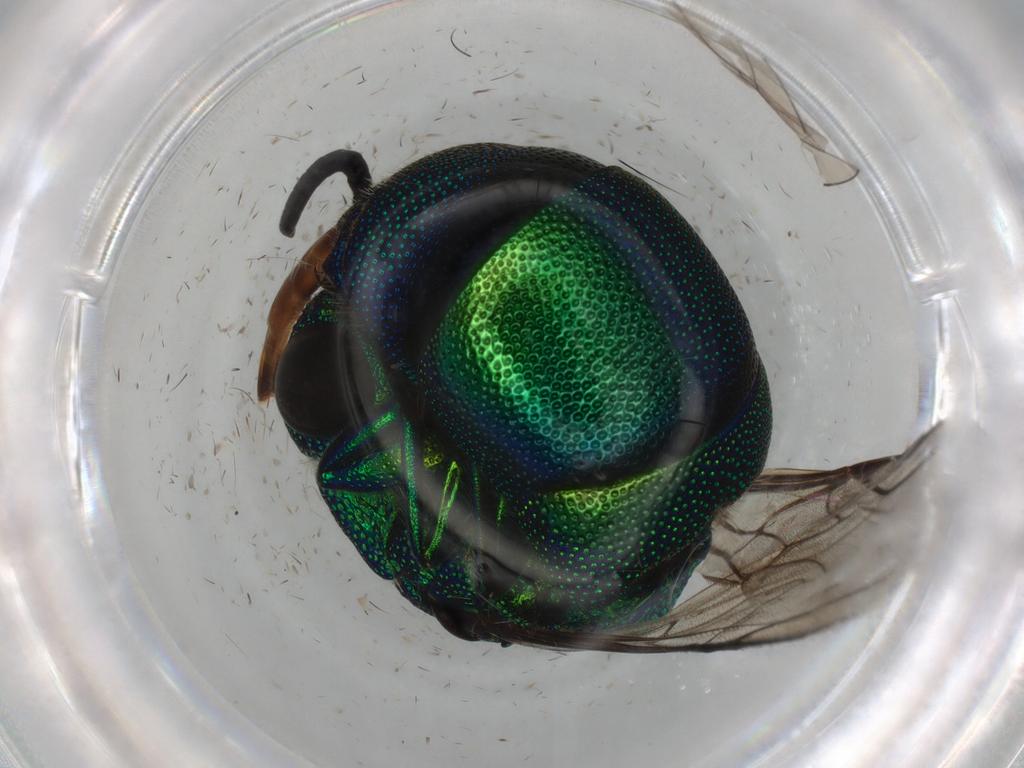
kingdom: Animalia
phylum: Arthropoda
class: Insecta
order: Hymenoptera
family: Chrysididae
